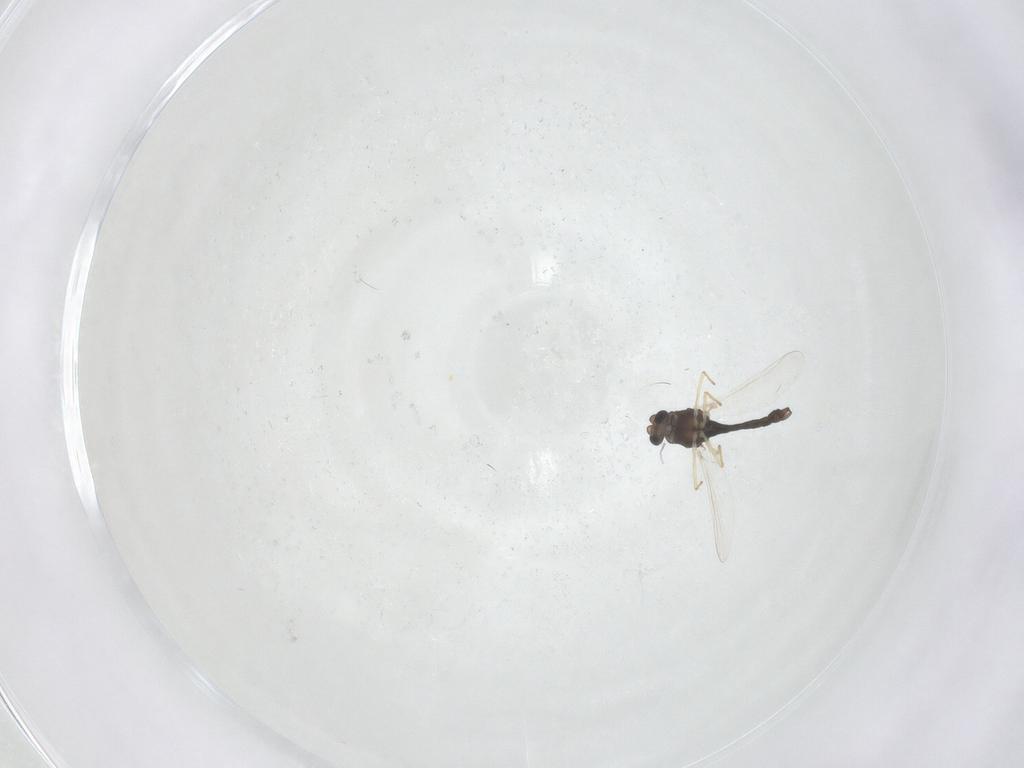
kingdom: Animalia
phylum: Arthropoda
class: Insecta
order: Diptera
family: Chironomidae
